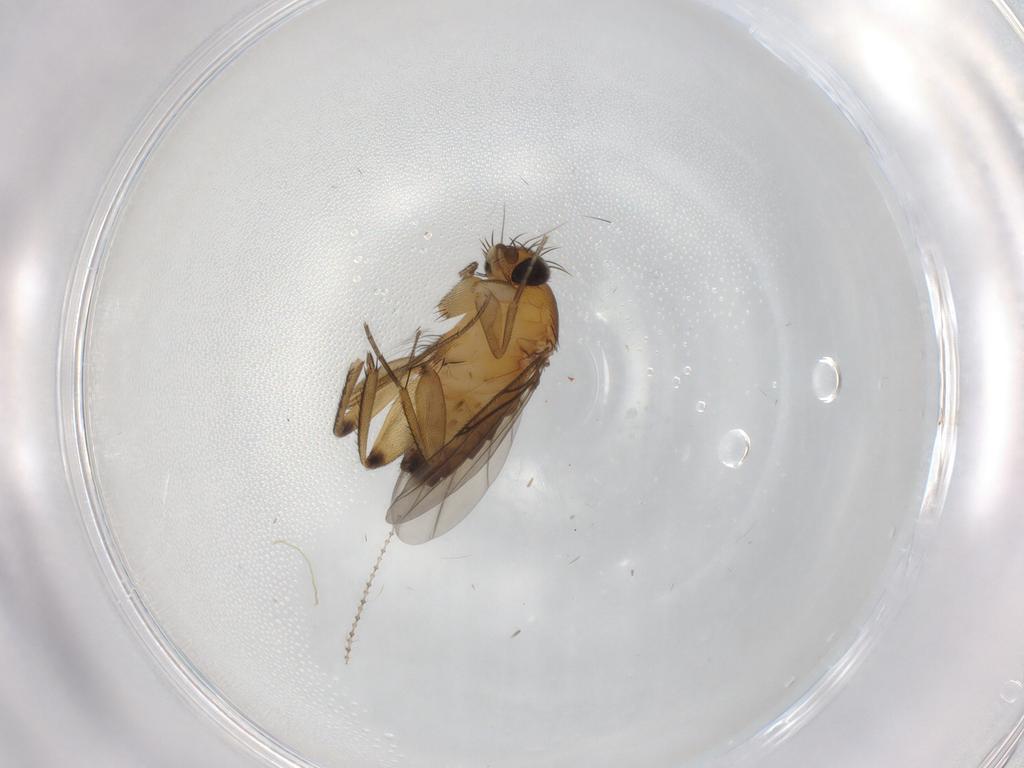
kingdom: Animalia
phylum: Arthropoda
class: Insecta
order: Diptera
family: Phoridae
